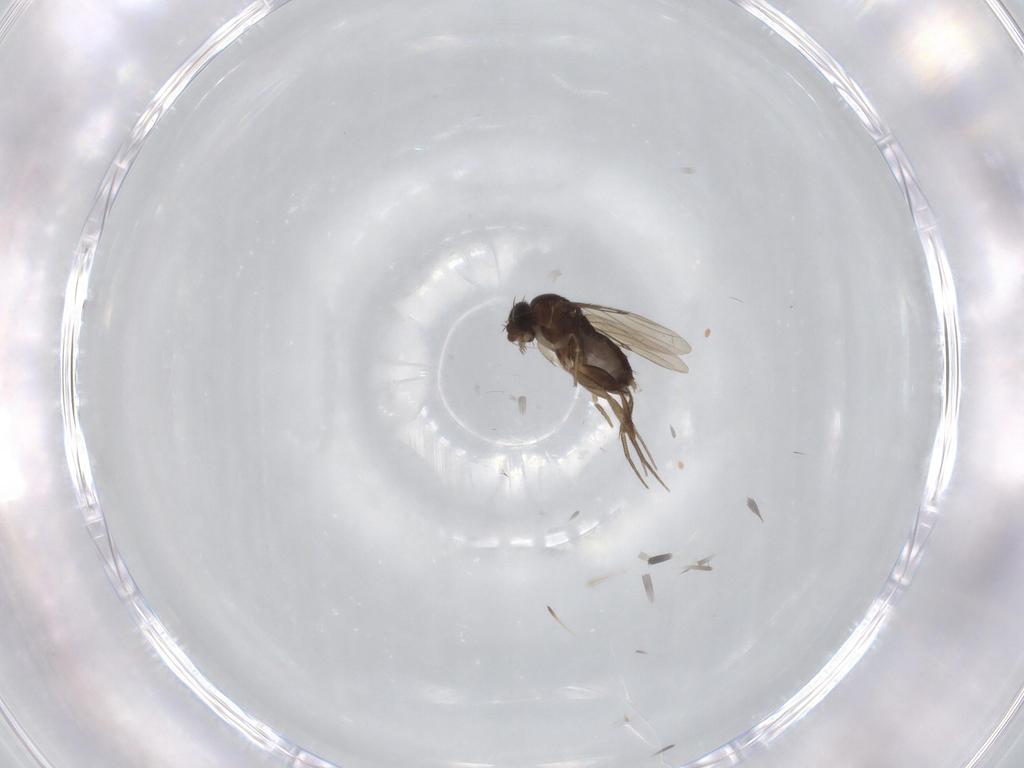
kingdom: Animalia
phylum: Arthropoda
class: Insecta
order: Diptera
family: Phoridae
